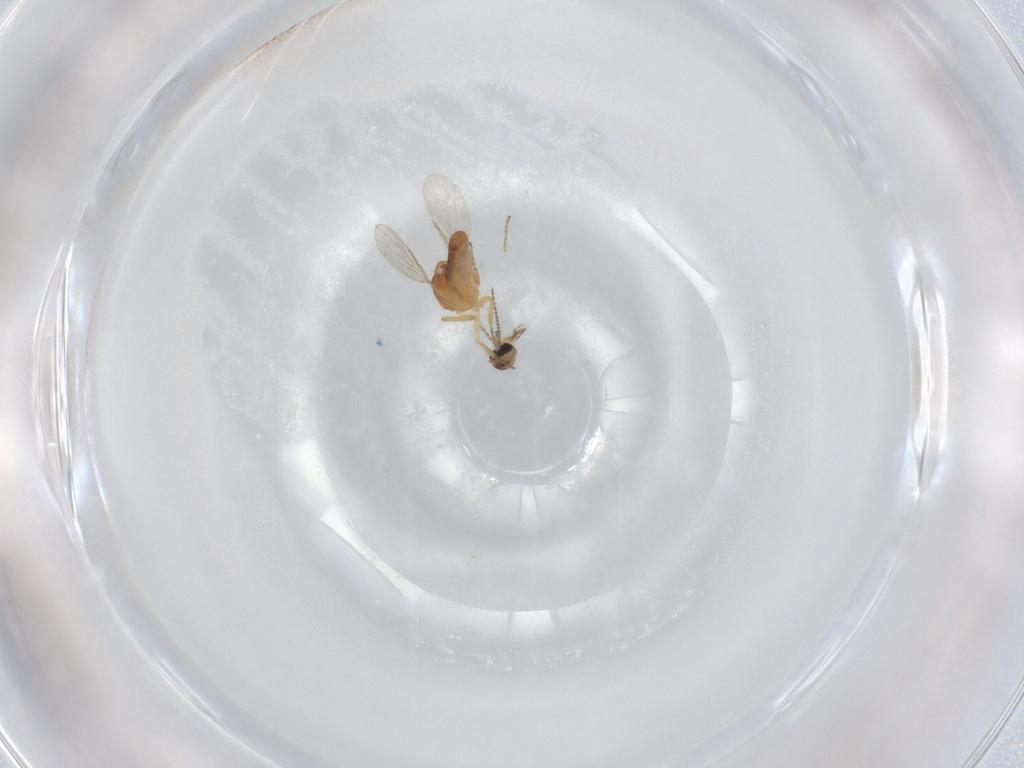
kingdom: Animalia
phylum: Arthropoda
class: Insecta
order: Diptera
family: Ceratopogonidae
